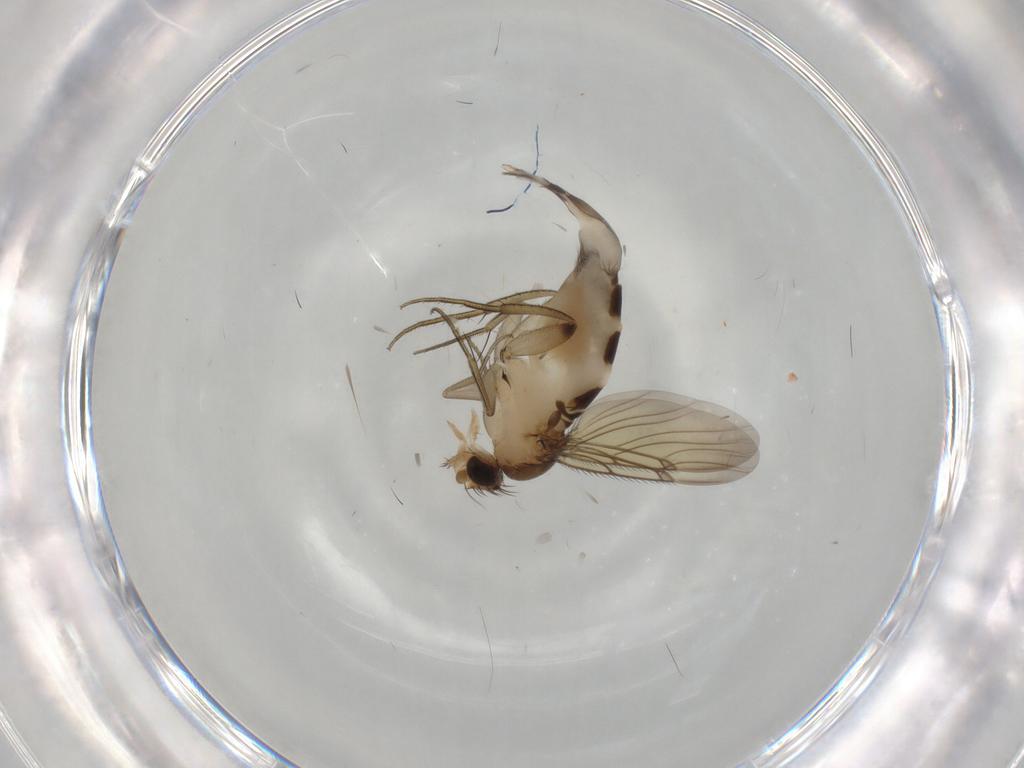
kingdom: Animalia
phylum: Arthropoda
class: Insecta
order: Diptera
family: Phoridae
